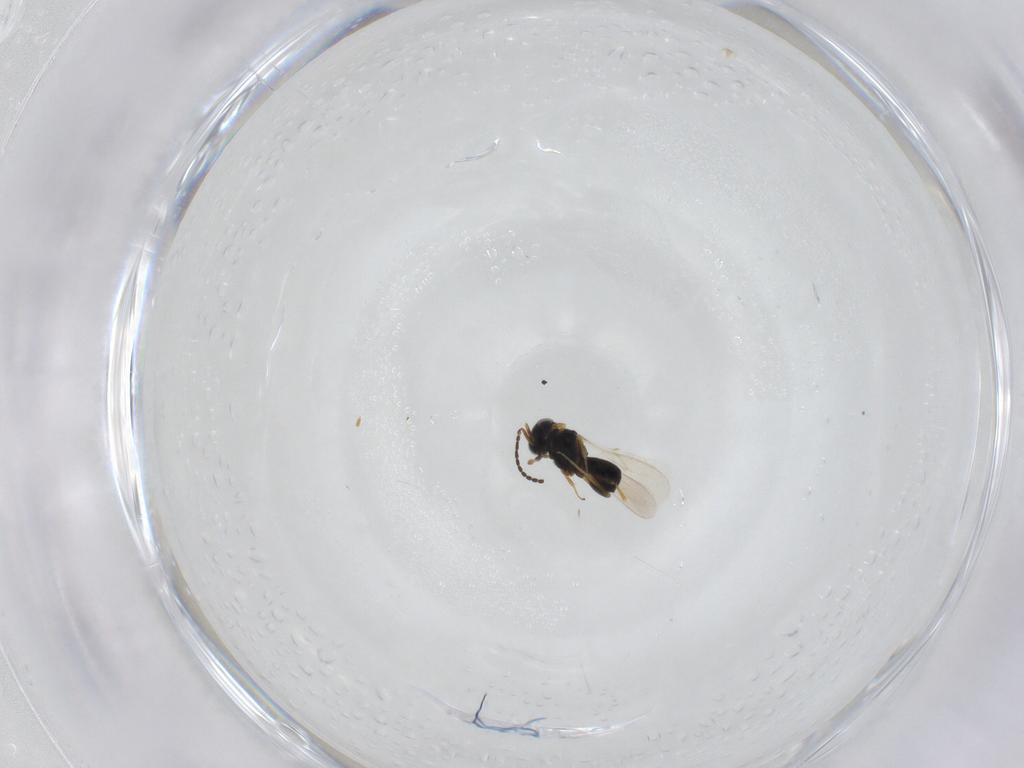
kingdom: Animalia
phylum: Arthropoda
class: Insecta
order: Hymenoptera
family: Scelionidae
